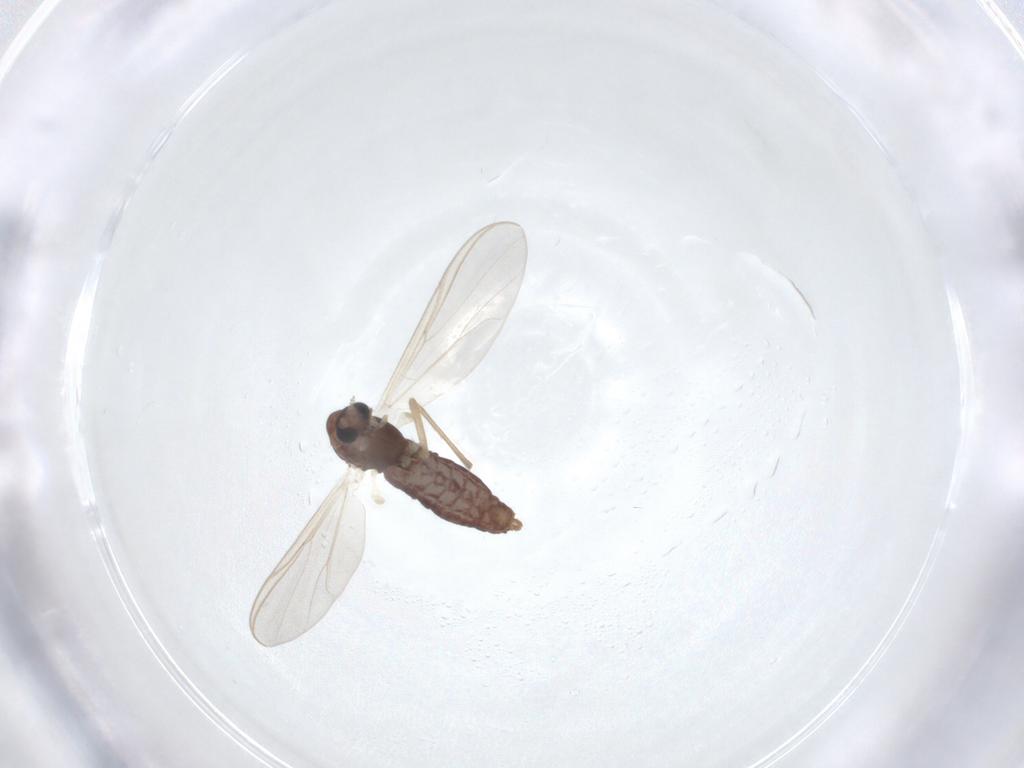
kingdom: Animalia
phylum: Arthropoda
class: Insecta
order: Diptera
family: Chironomidae
